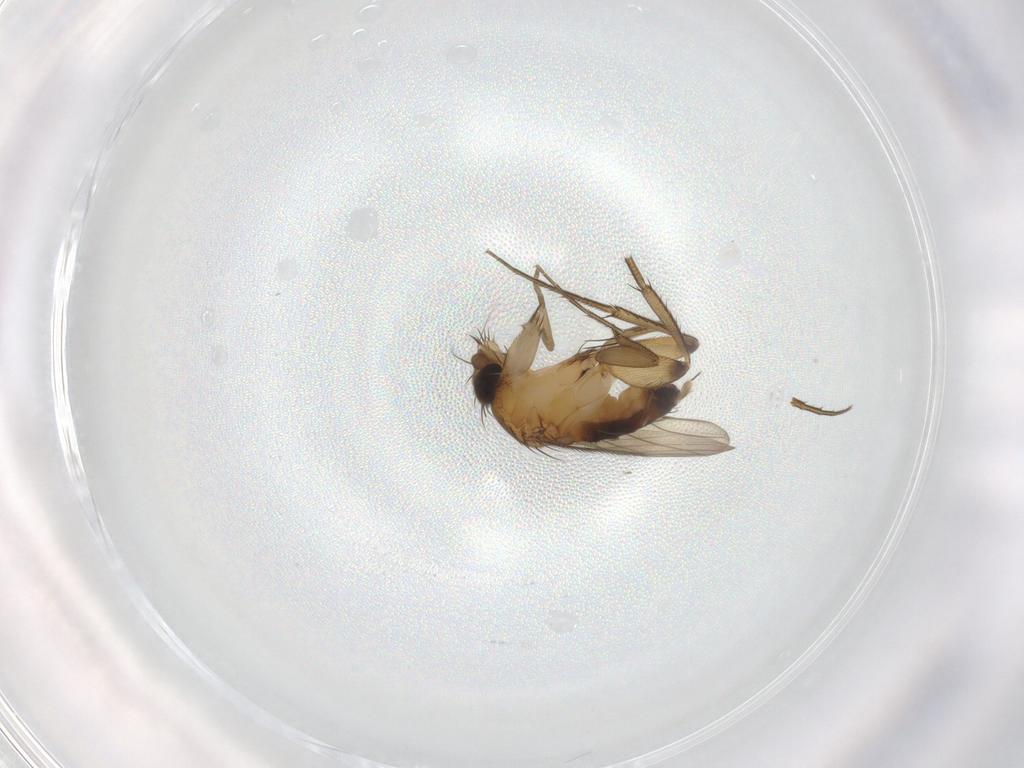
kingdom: Animalia
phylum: Arthropoda
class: Insecta
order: Diptera
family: Phoridae
